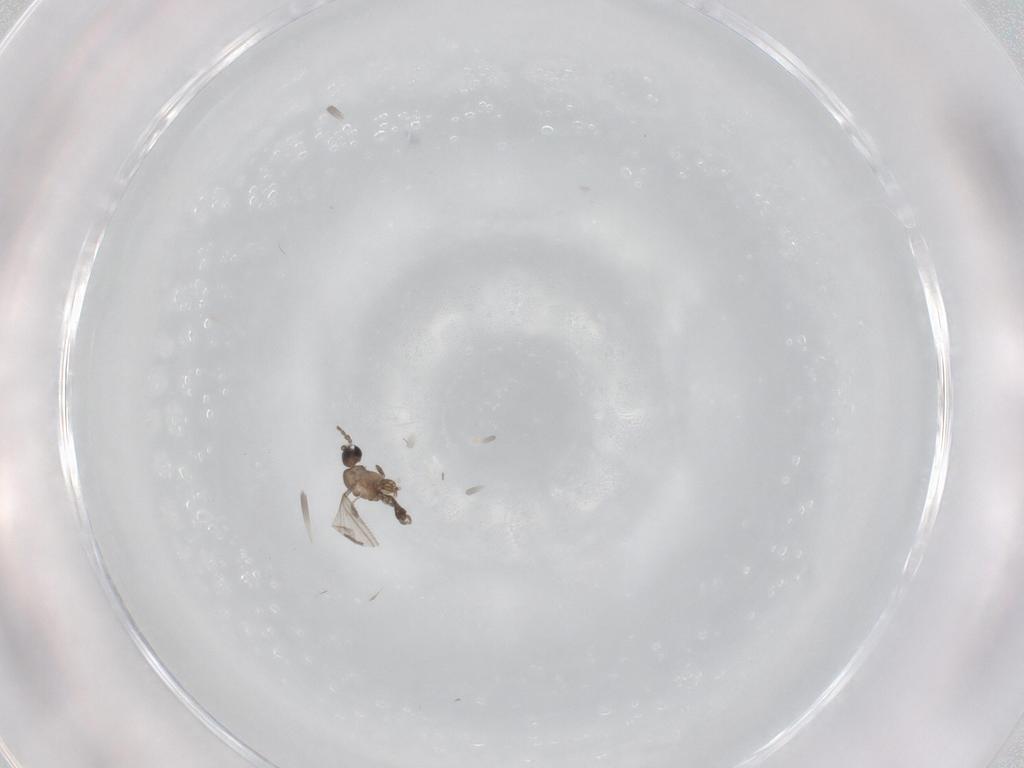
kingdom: Animalia
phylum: Arthropoda
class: Insecta
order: Diptera
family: Sciaridae
